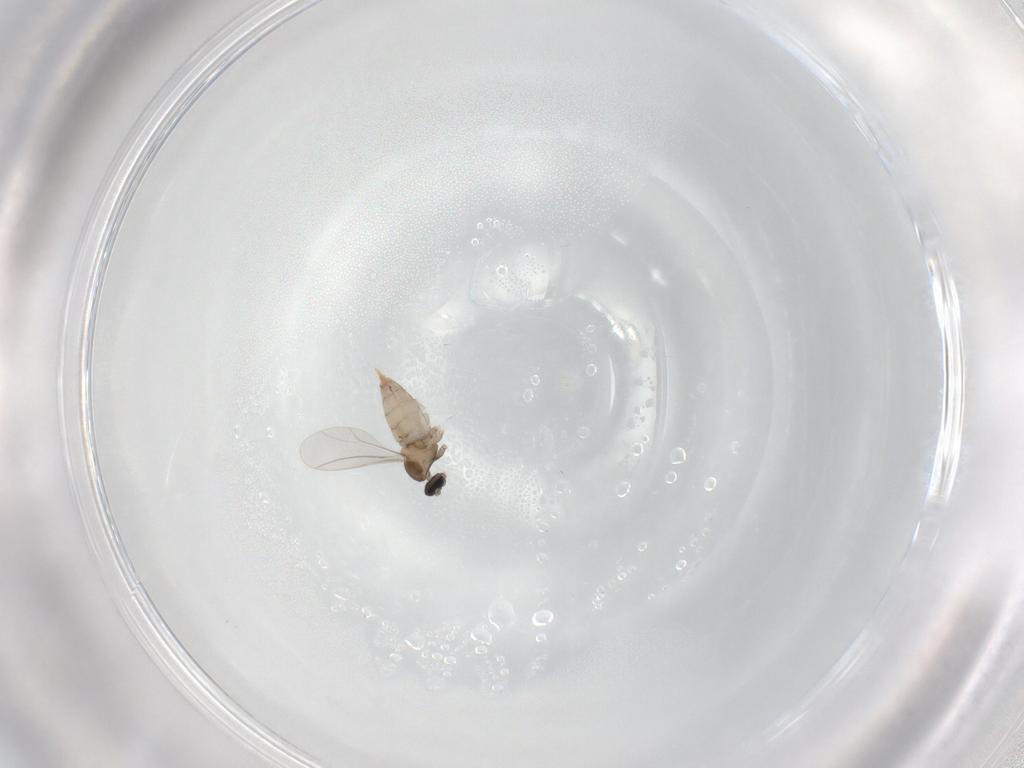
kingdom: Animalia
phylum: Arthropoda
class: Insecta
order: Diptera
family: Cecidomyiidae
